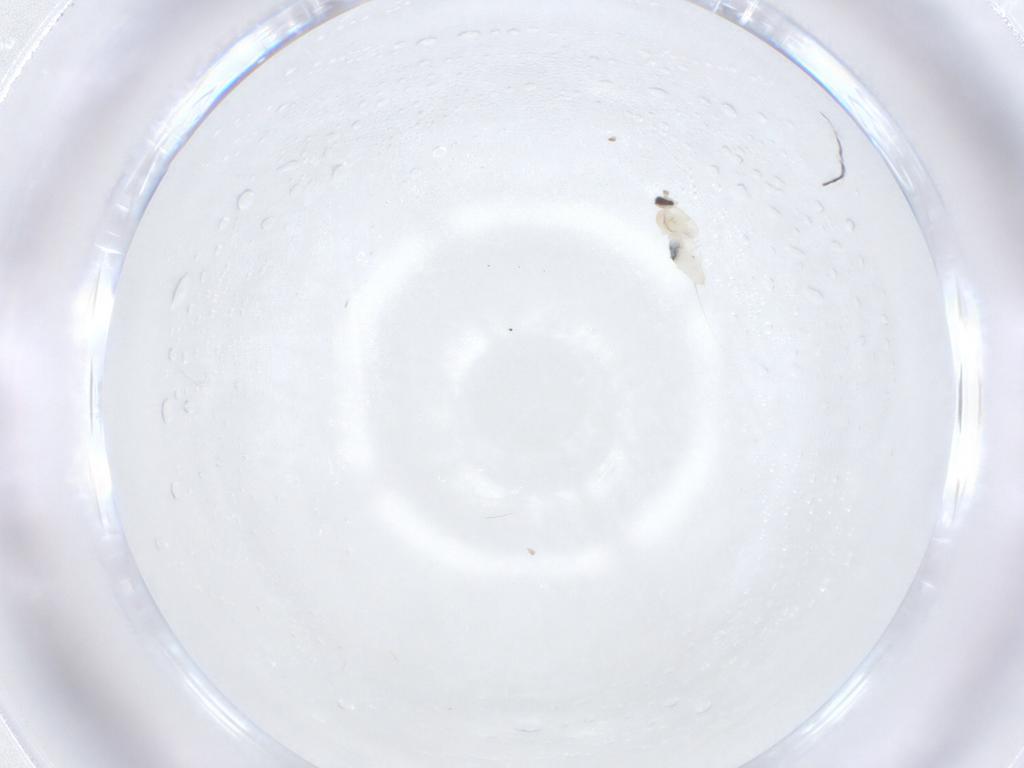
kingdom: Animalia
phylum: Arthropoda
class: Insecta
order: Diptera
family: Cecidomyiidae
